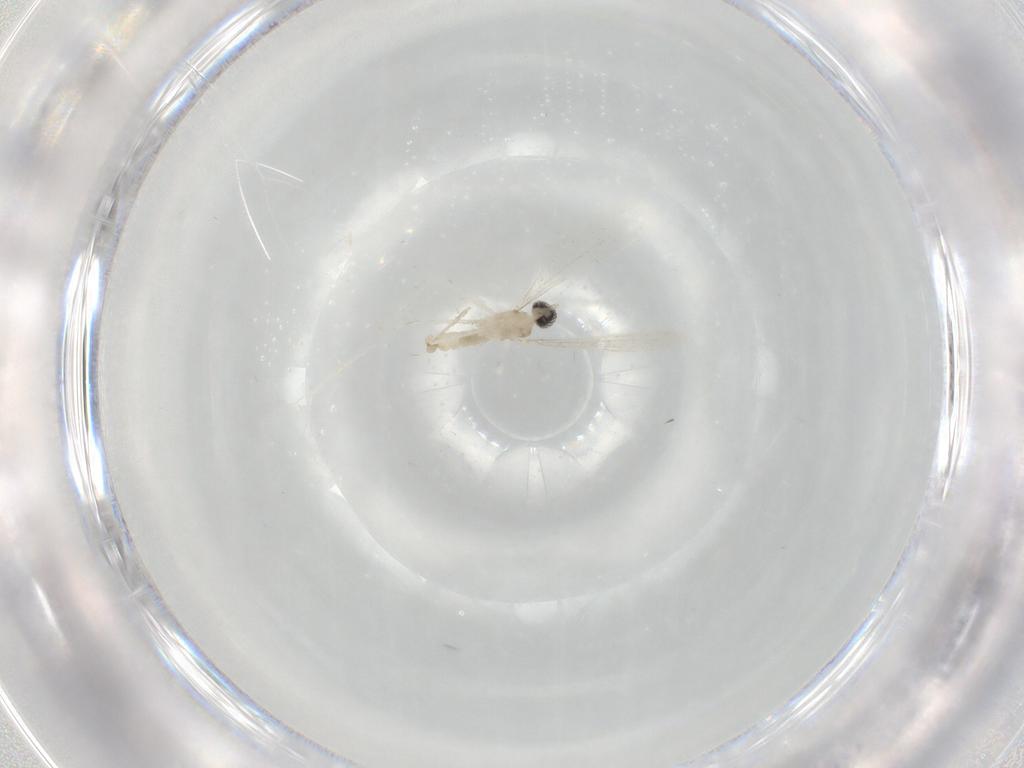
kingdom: Animalia
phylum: Arthropoda
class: Insecta
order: Diptera
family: Cecidomyiidae
